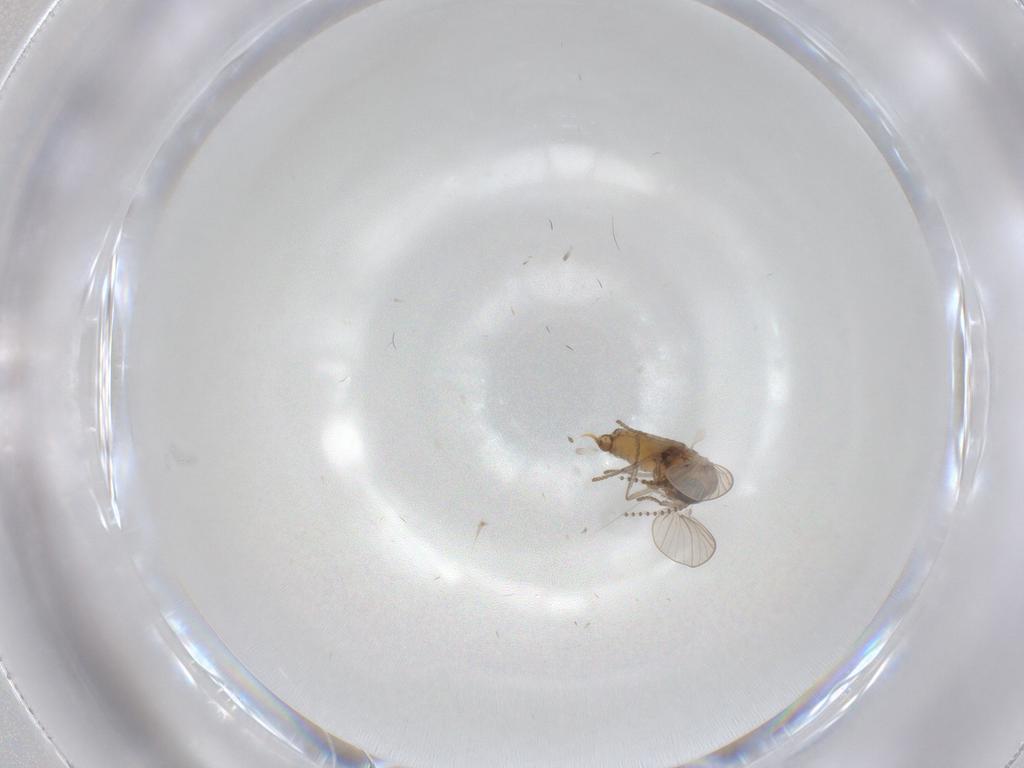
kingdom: Animalia
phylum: Arthropoda
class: Insecta
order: Diptera
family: Psychodidae
